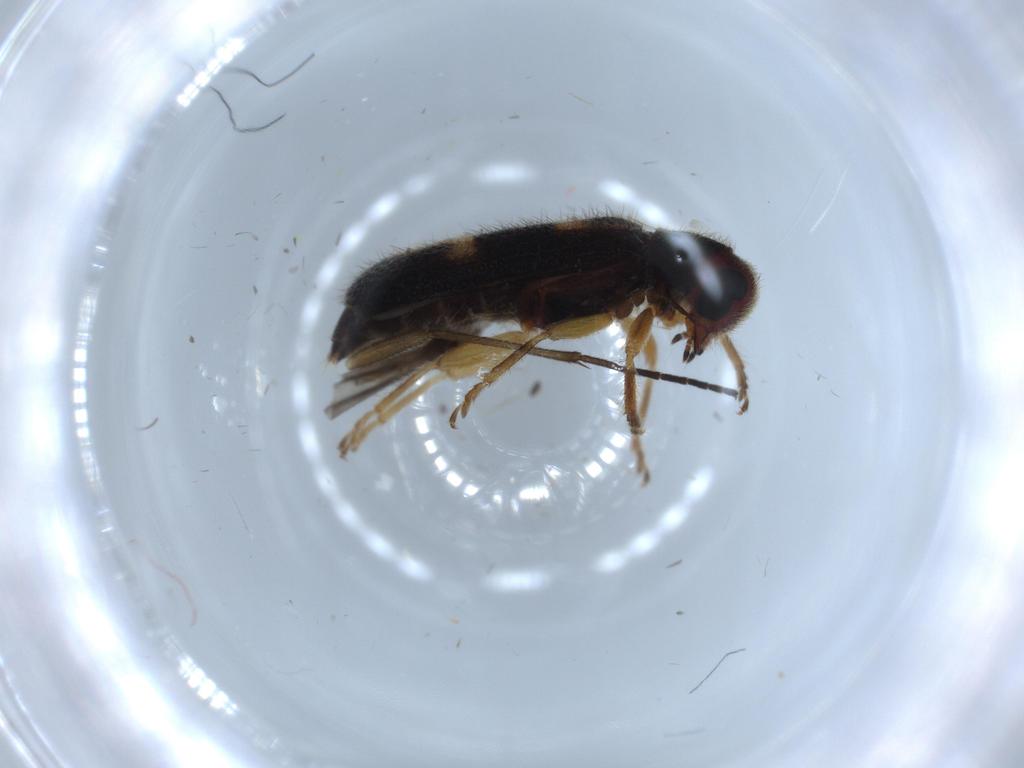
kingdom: Animalia
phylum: Arthropoda
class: Insecta
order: Coleoptera
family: Cleridae
